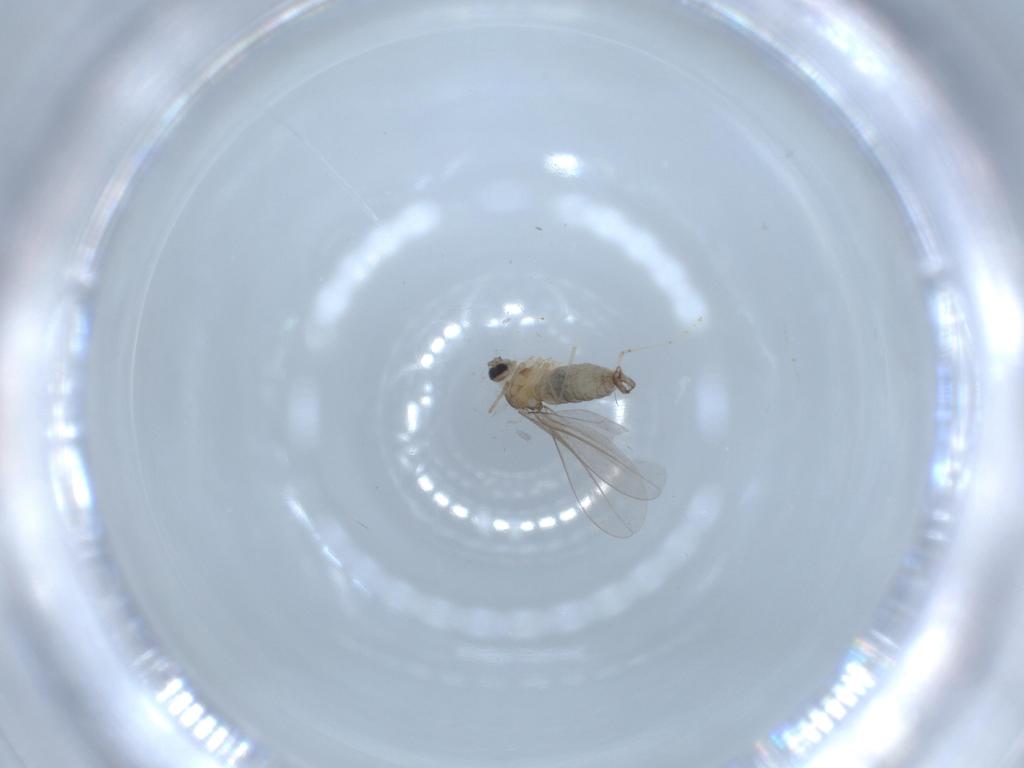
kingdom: Animalia
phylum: Arthropoda
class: Insecta
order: Diptera
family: Cecidomyiidae
